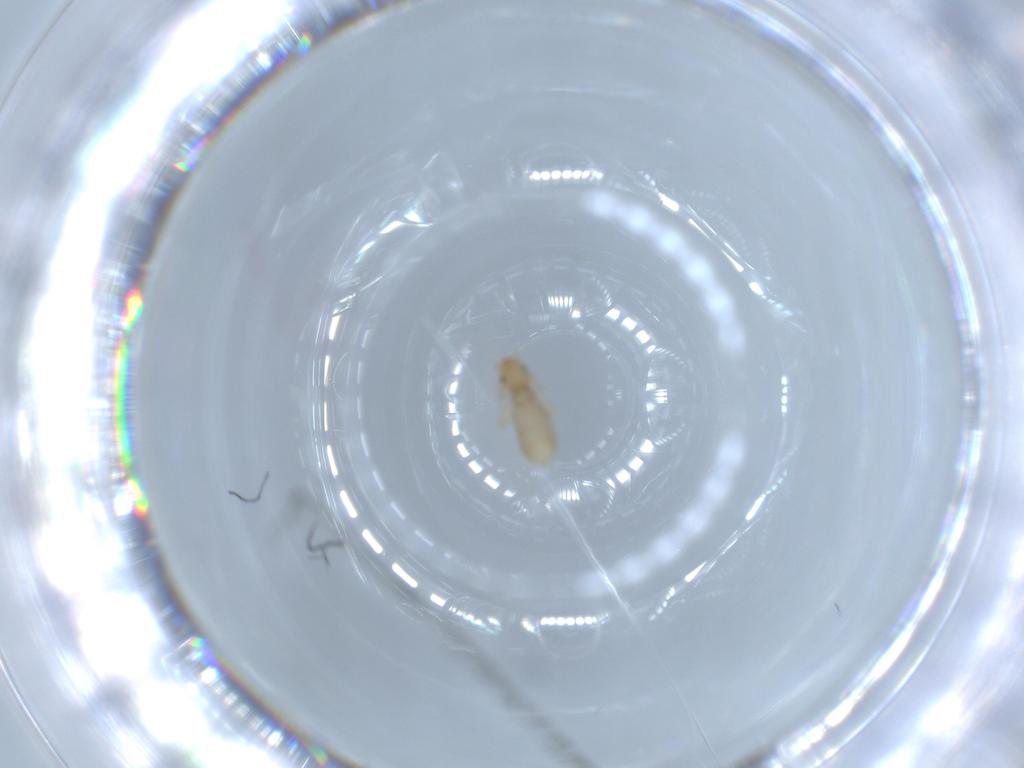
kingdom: Animalia
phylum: Arthropoda
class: Insecta
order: Psocodea
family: Liposcelididae
